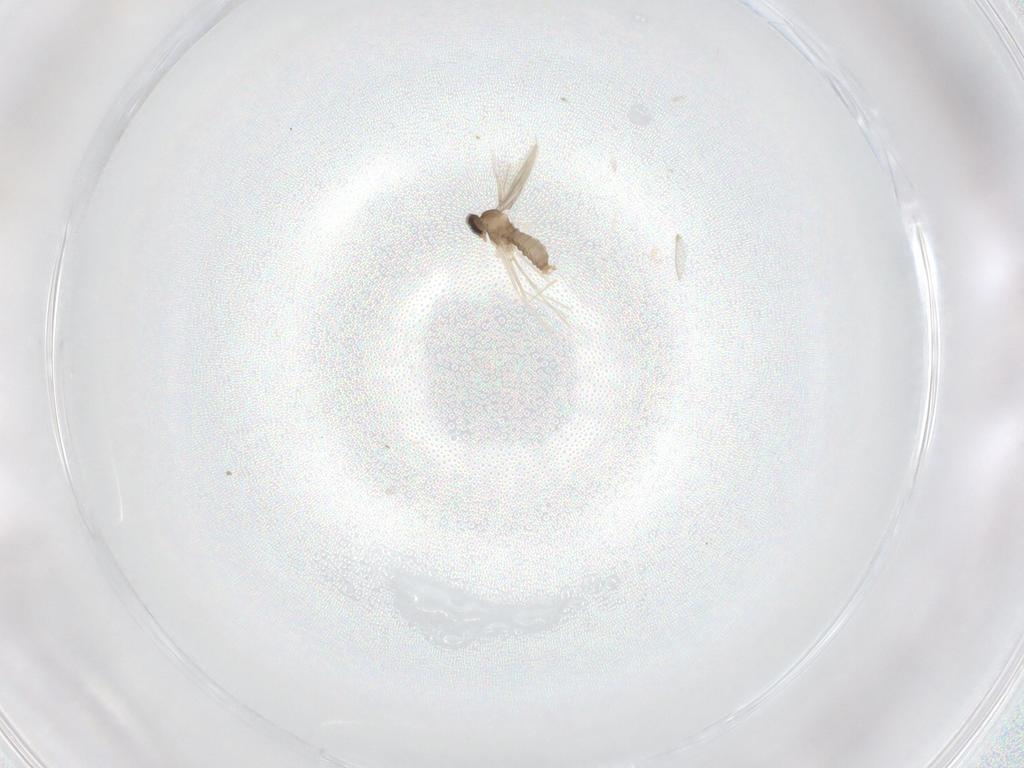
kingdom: Animalia
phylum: Arthropoda
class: Insecta
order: Diptera
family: Cecidomyiidae
